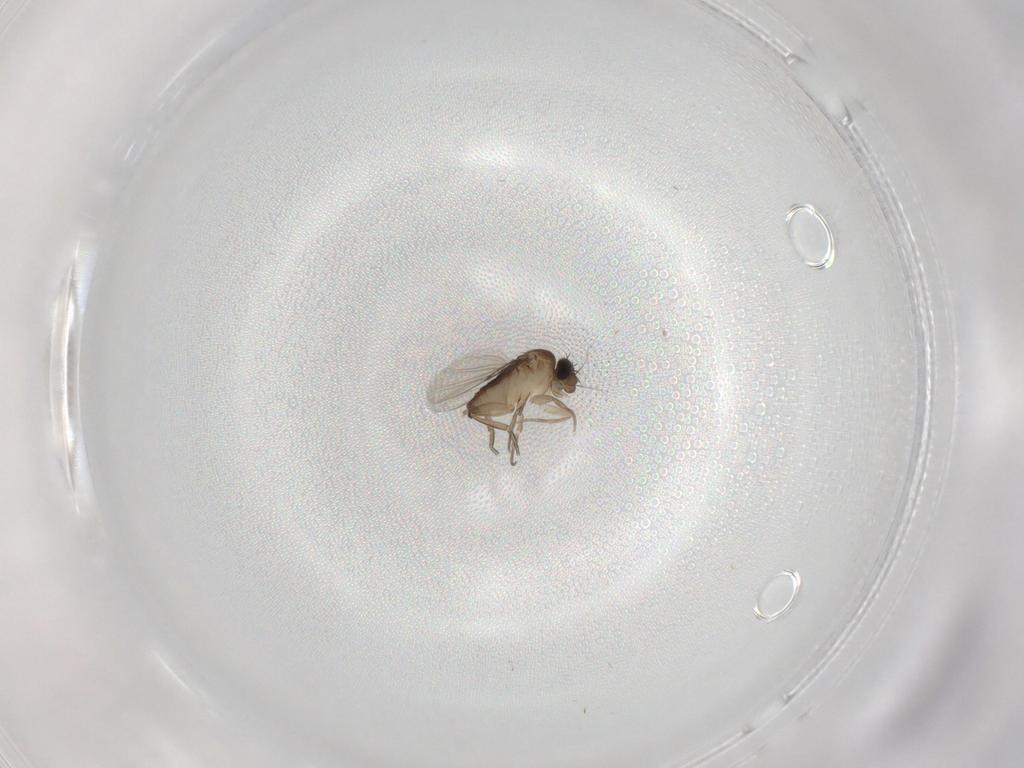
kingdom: Animalia
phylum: Arthropoda
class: Insecta
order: Diptera
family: Phoridae
